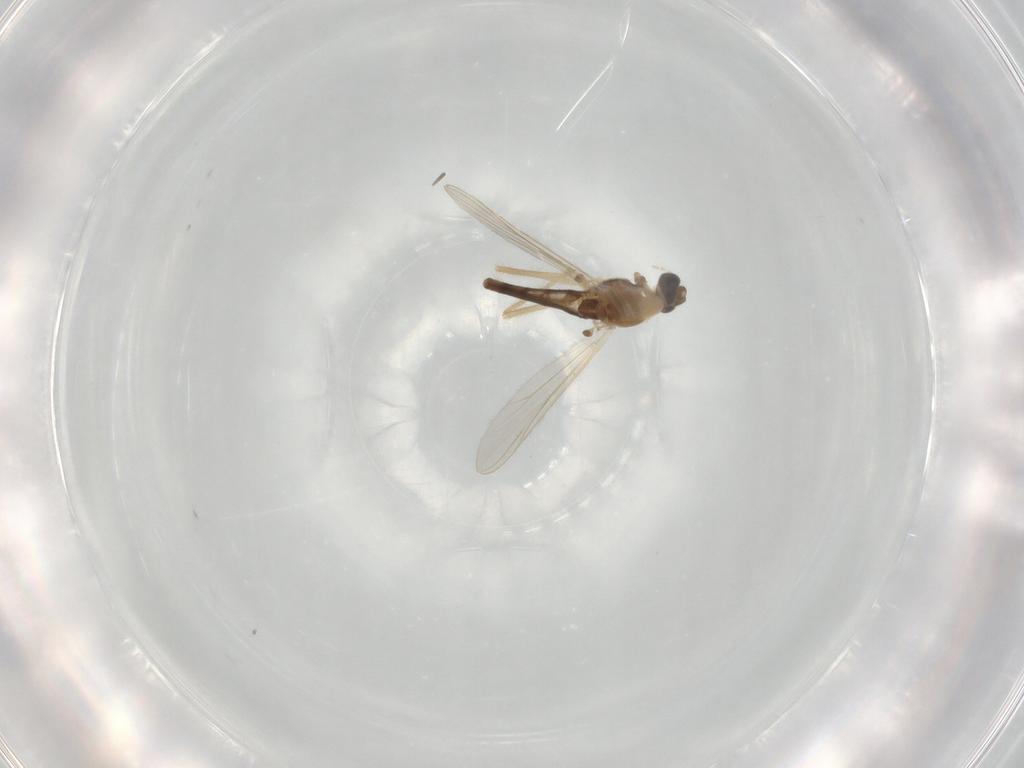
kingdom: Animalia
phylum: Arthropoda
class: Insecta
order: Diptera
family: Chironomidae
